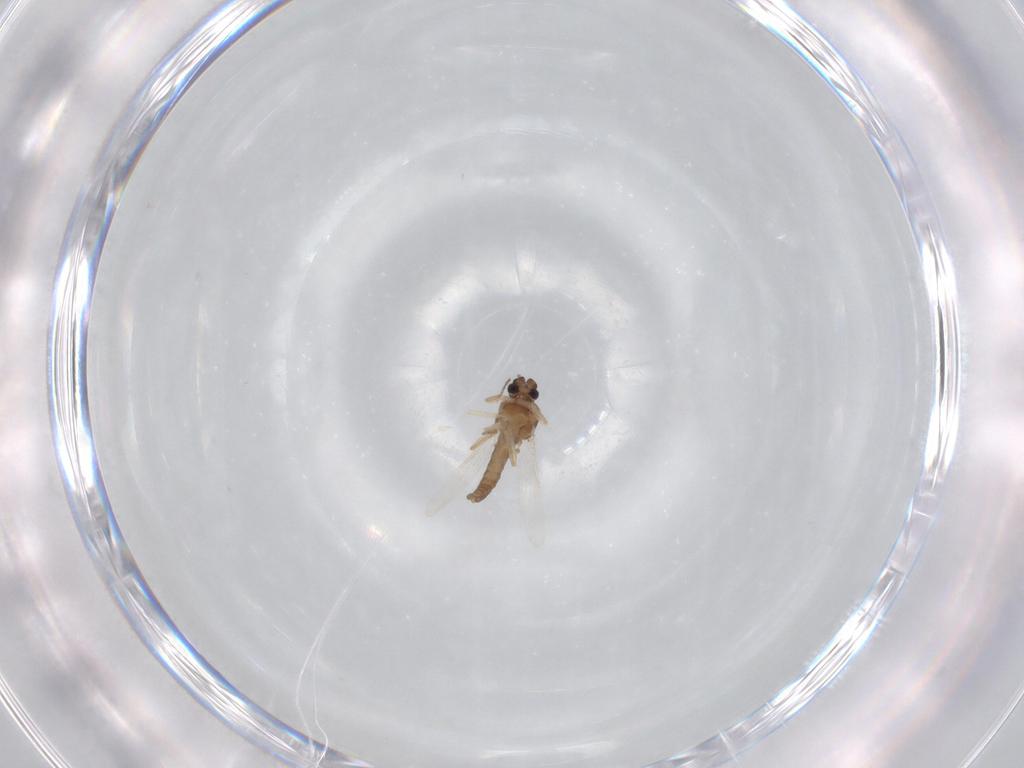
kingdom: Animalia
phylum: Arthropoda
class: Insecta
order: Diptera
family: Ceratopogonidae
